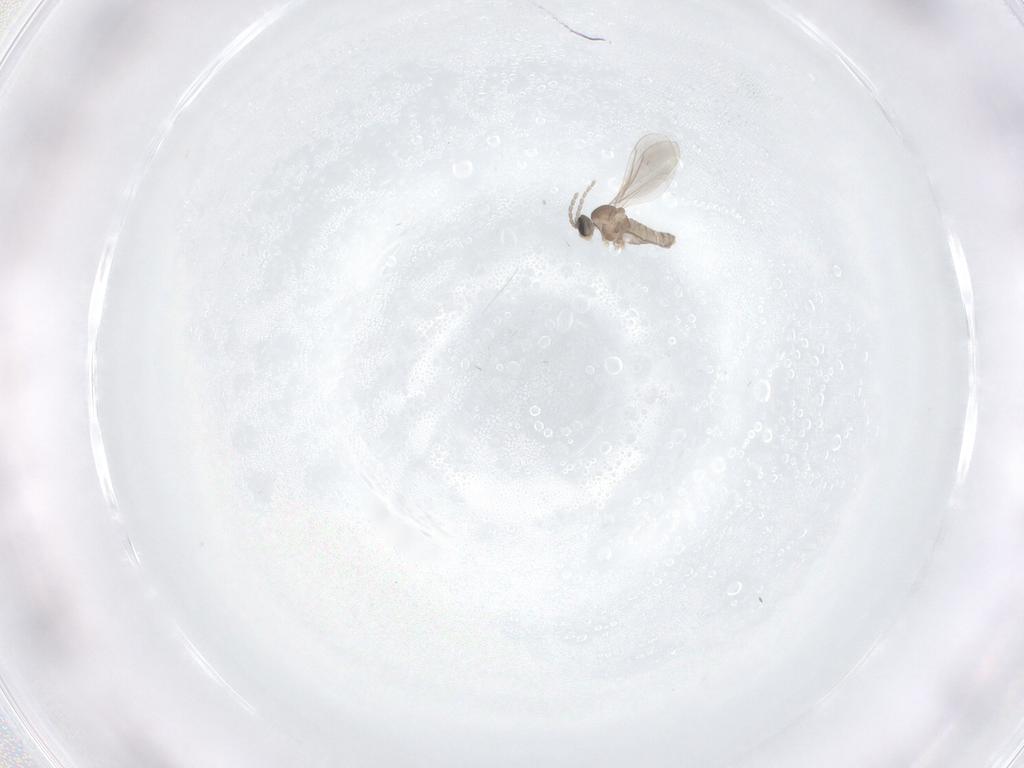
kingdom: Animalia
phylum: Arthropoda
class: Insecta
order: Diptera
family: Cecidomyiidae
